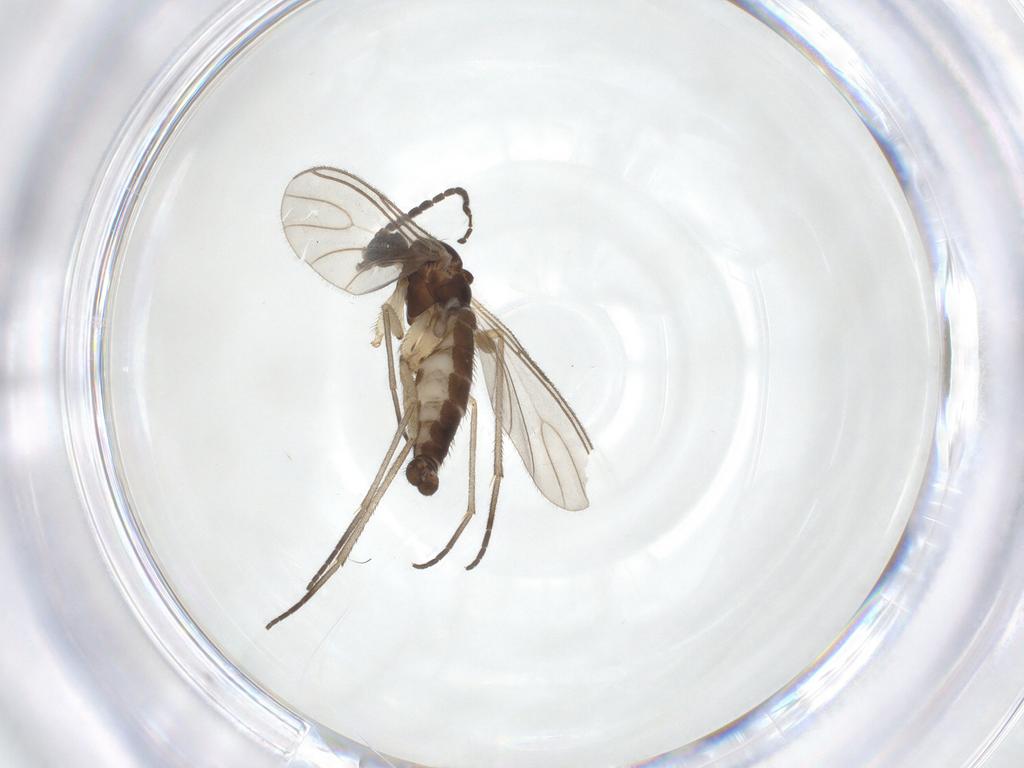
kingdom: Animalia
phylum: Arthropoda
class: Insecta
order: Diptera
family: Sciaridae
